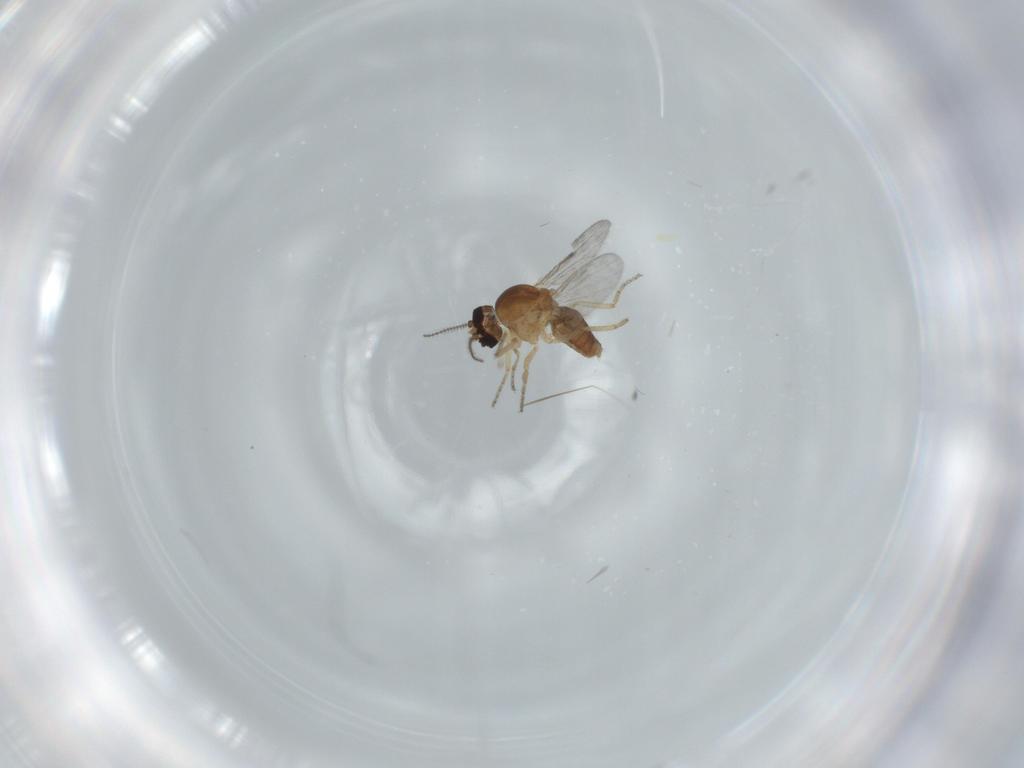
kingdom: Animalia
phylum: Arthropoda
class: Insecta
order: Diptera
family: Ceratopogonidae
